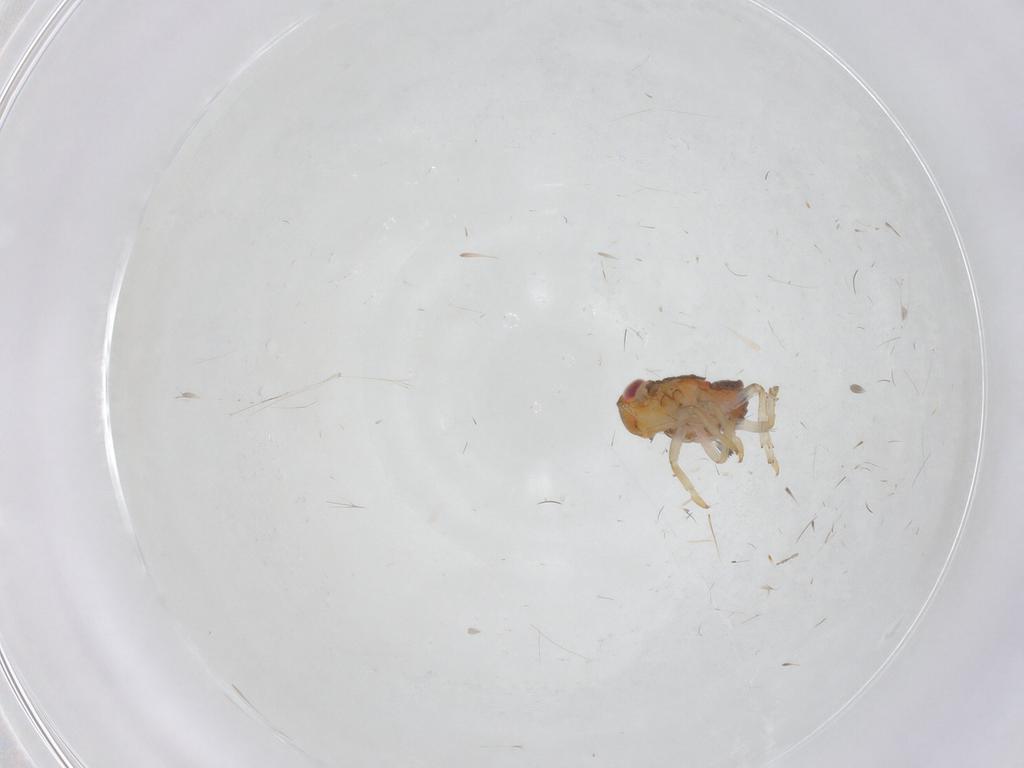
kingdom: Animalia
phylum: Arthropoda
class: Insecta
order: Hemiptera
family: Issidae
